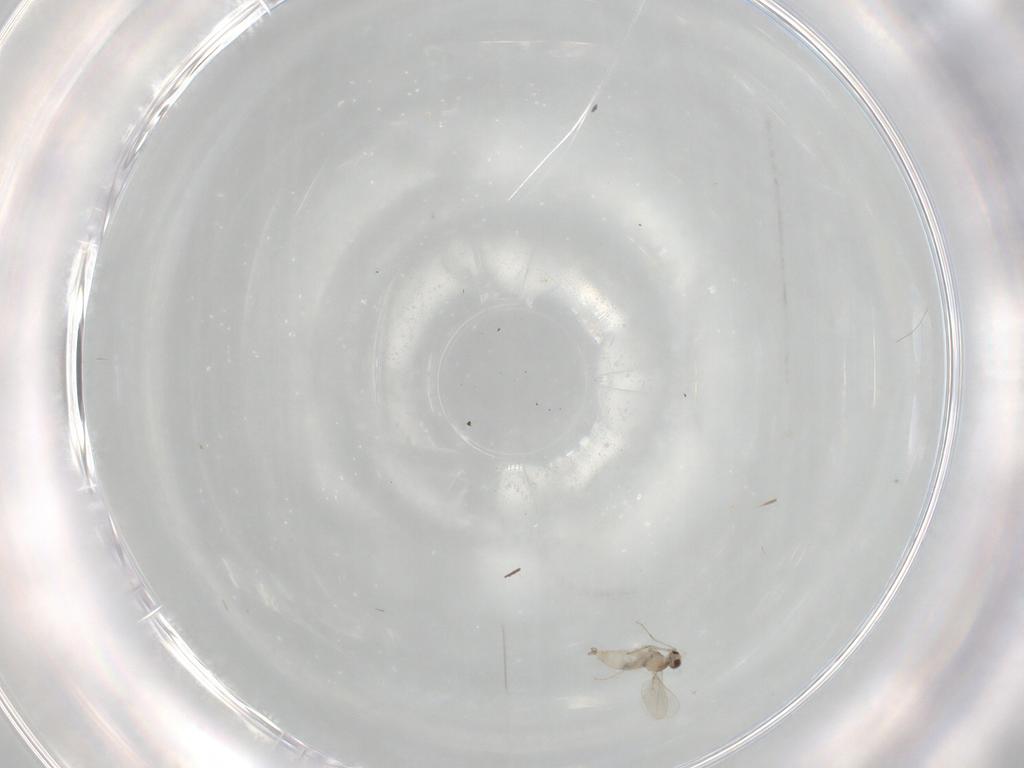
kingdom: Animalia
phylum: Arthropoda
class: Insecta
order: Diptera
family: Cecidomyiidae
